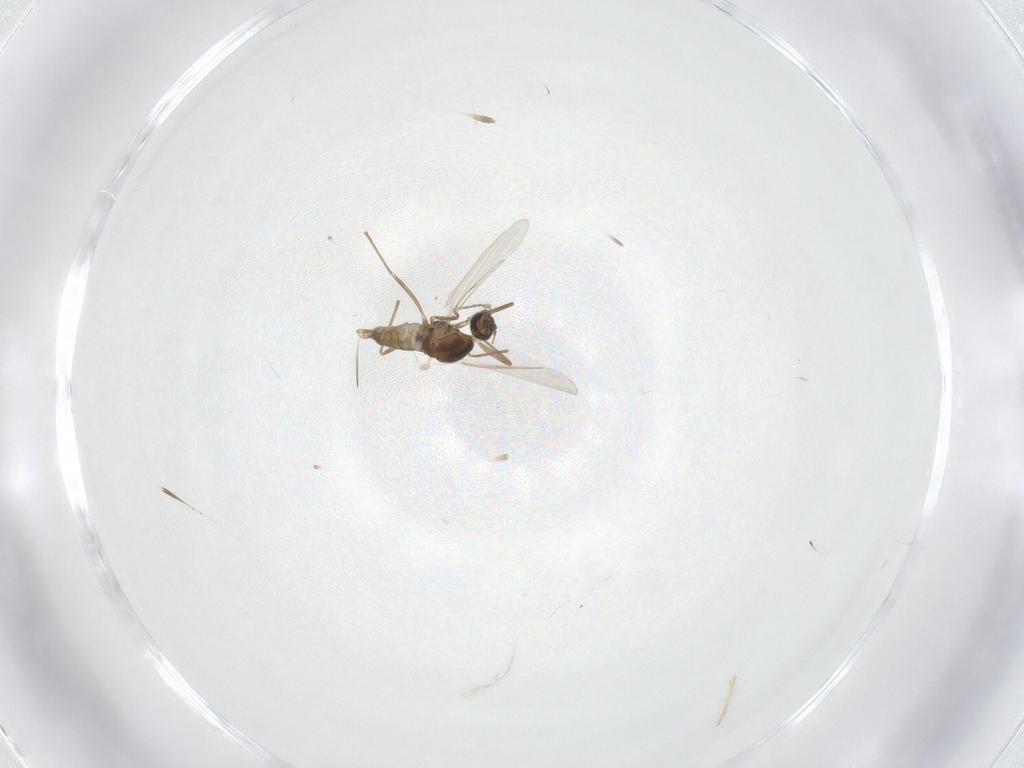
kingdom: Animalia
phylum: Arthropoda
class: Insecta
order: Diptera
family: Cecidomyiidae
